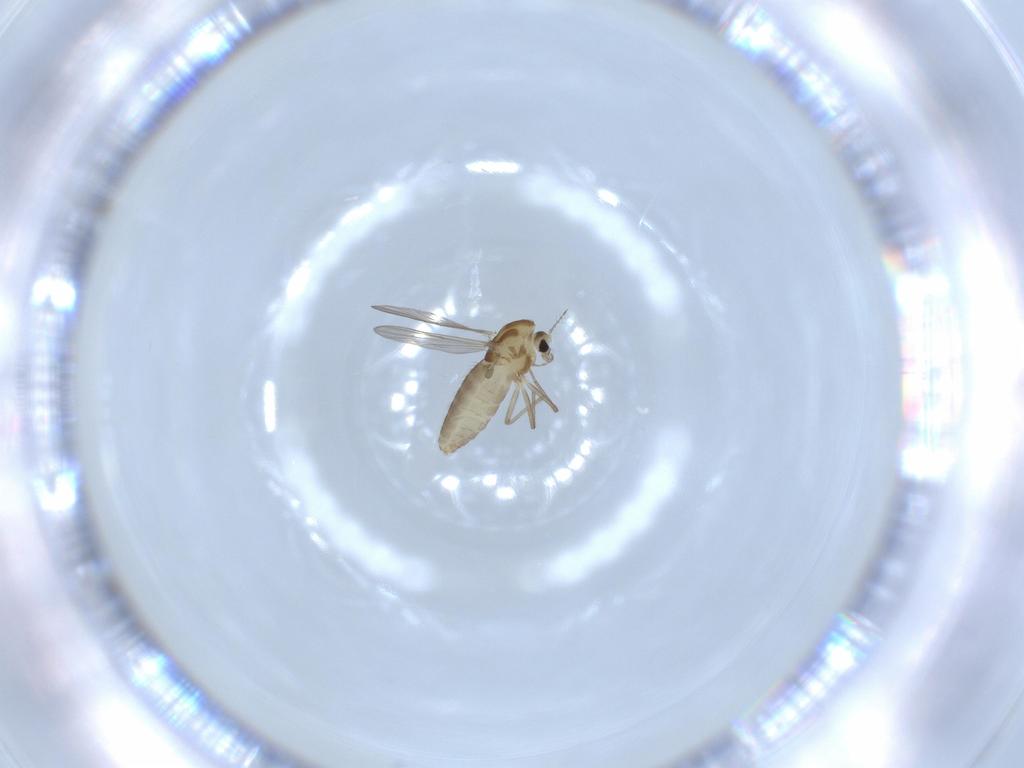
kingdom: Animalia
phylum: Arthropoda
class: Insecta
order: Diptera
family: Chironomidae
